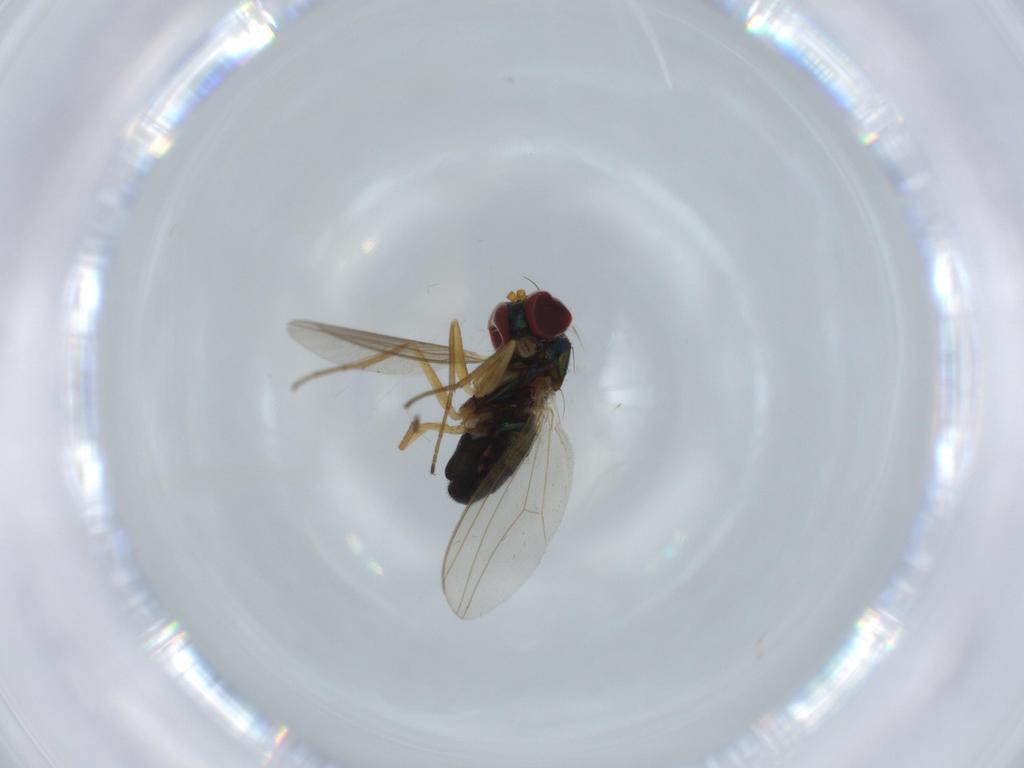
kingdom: Animalia
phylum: Arthropoda
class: Insecta
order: Diptera
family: Dolichopodidae
